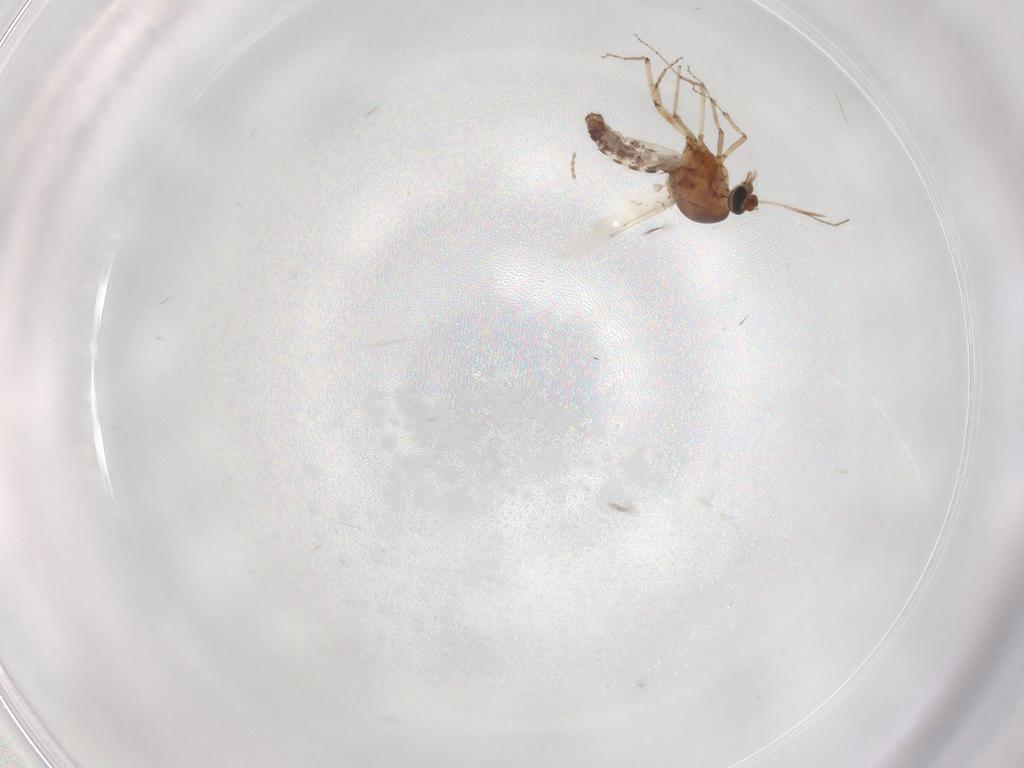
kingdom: Animalia
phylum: Arthropoda
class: Insecta
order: Diptera
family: Ceratopogonidae
